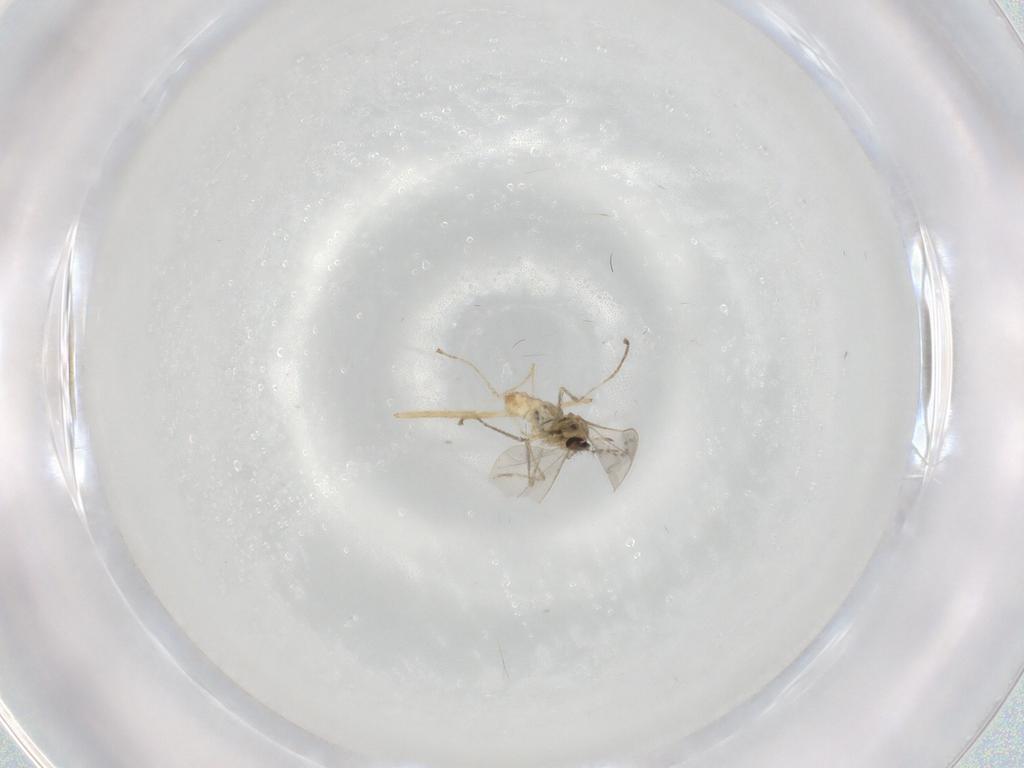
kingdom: Animalia
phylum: Arthropoda
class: Insecta
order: Diptera
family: Cecidomyiidae
